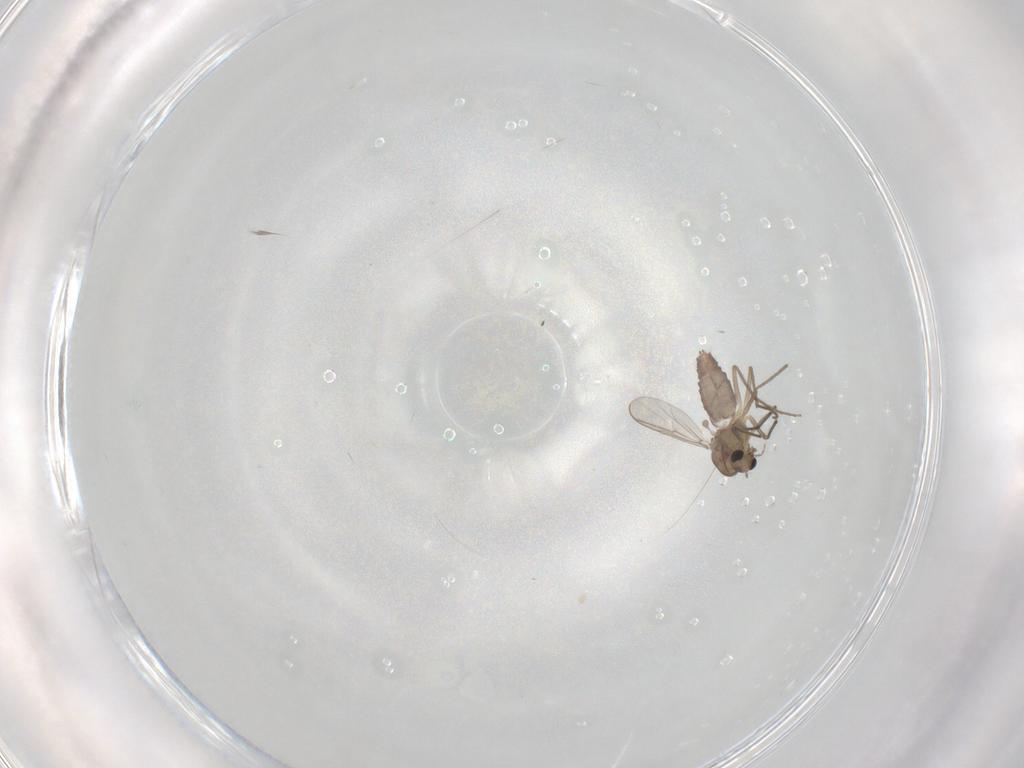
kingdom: Animalia
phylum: Arthropoda
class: Insecta
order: Diptera
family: Chironomidae
